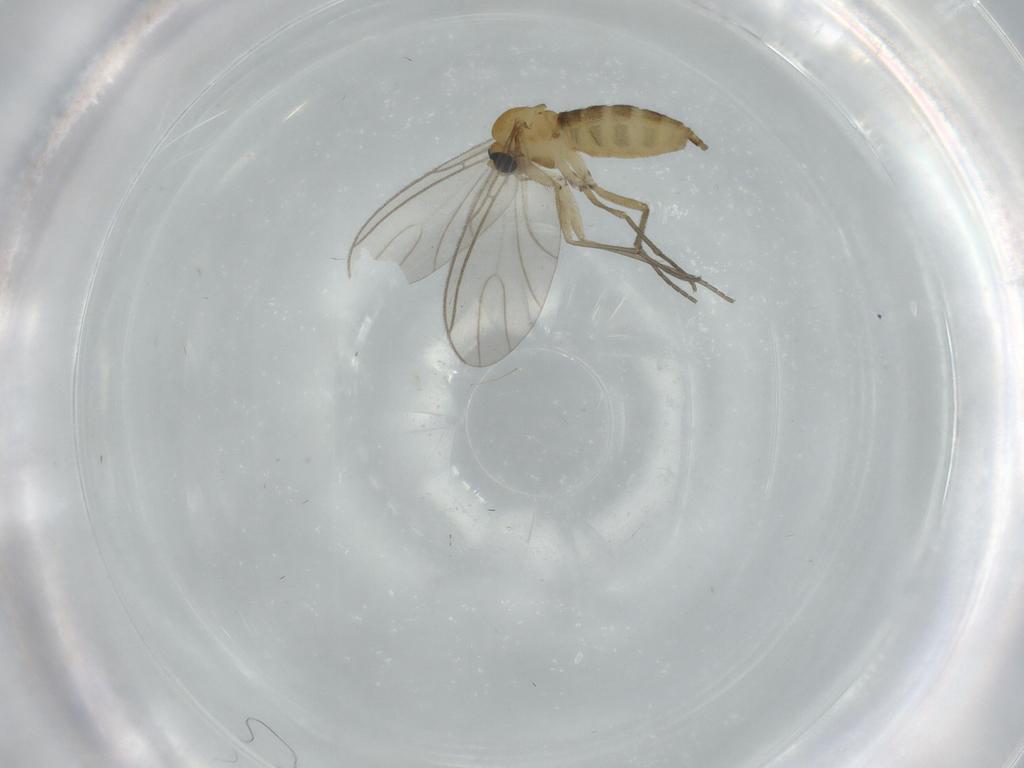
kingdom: Animalia
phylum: Arthropoda
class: Insecta
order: Diptera
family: Sciaridae
